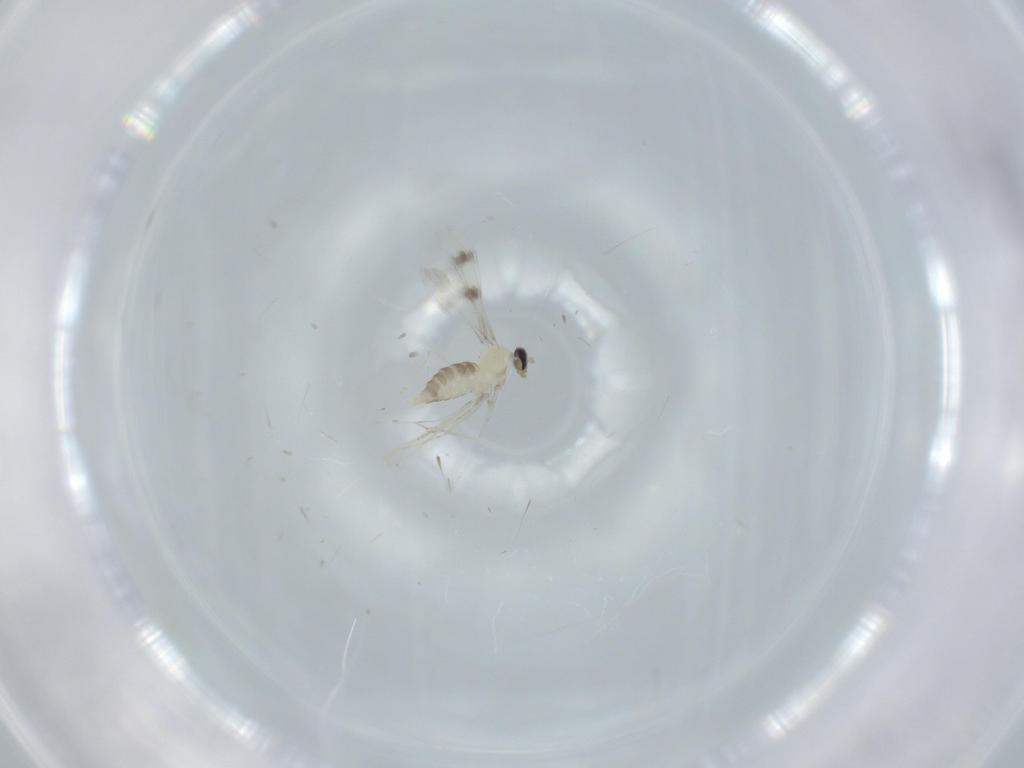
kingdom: Animalia
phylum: Arthropoda
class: Insecta
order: Diptera
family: Cecidomyiidae
